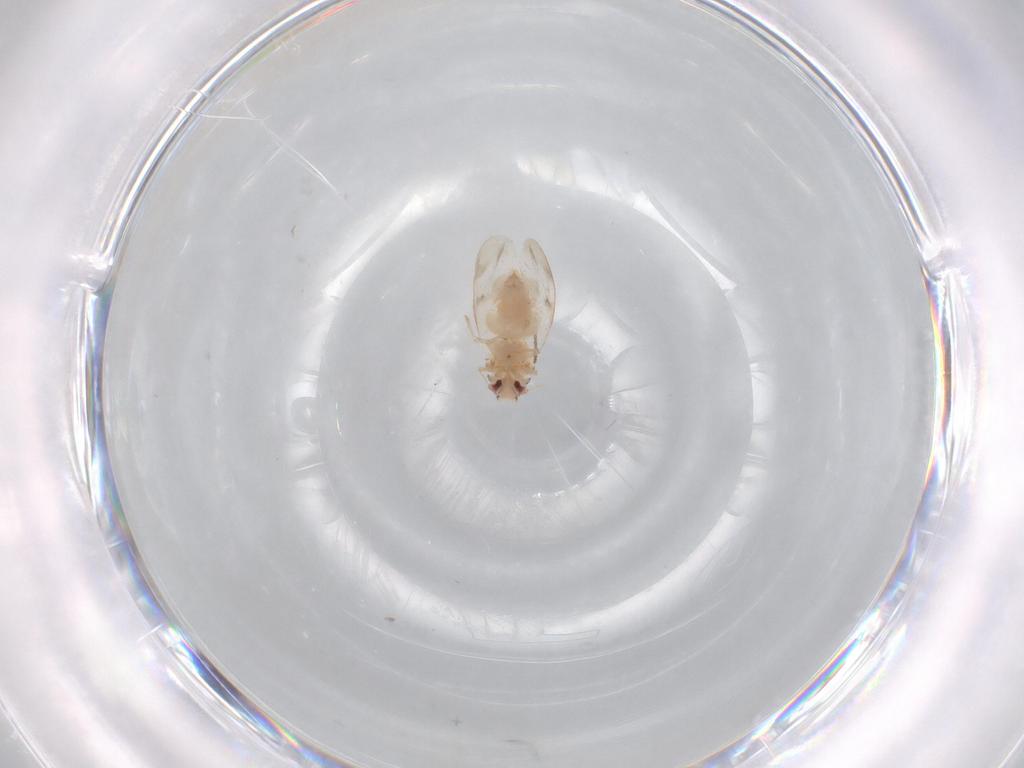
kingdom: Animalia
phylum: Arthropoda
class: Insecta
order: Hemiptera
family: Aleyrodidae
